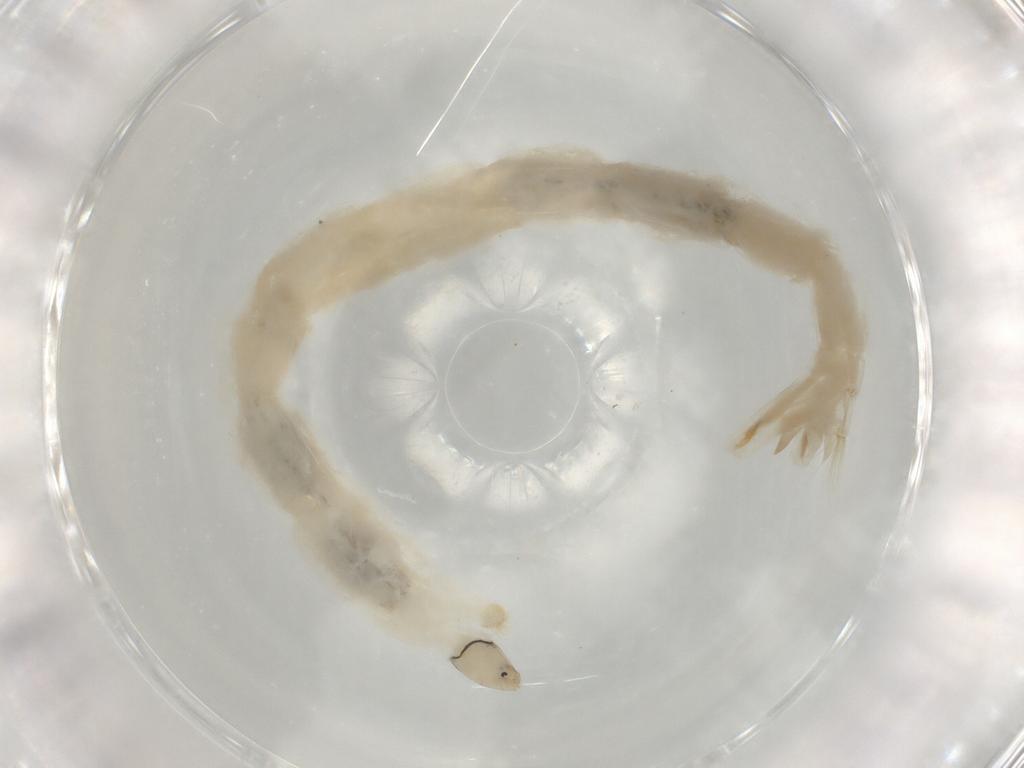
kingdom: Animalia
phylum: Arthropoda
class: Insecta
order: Diptera
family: Chironomidae
